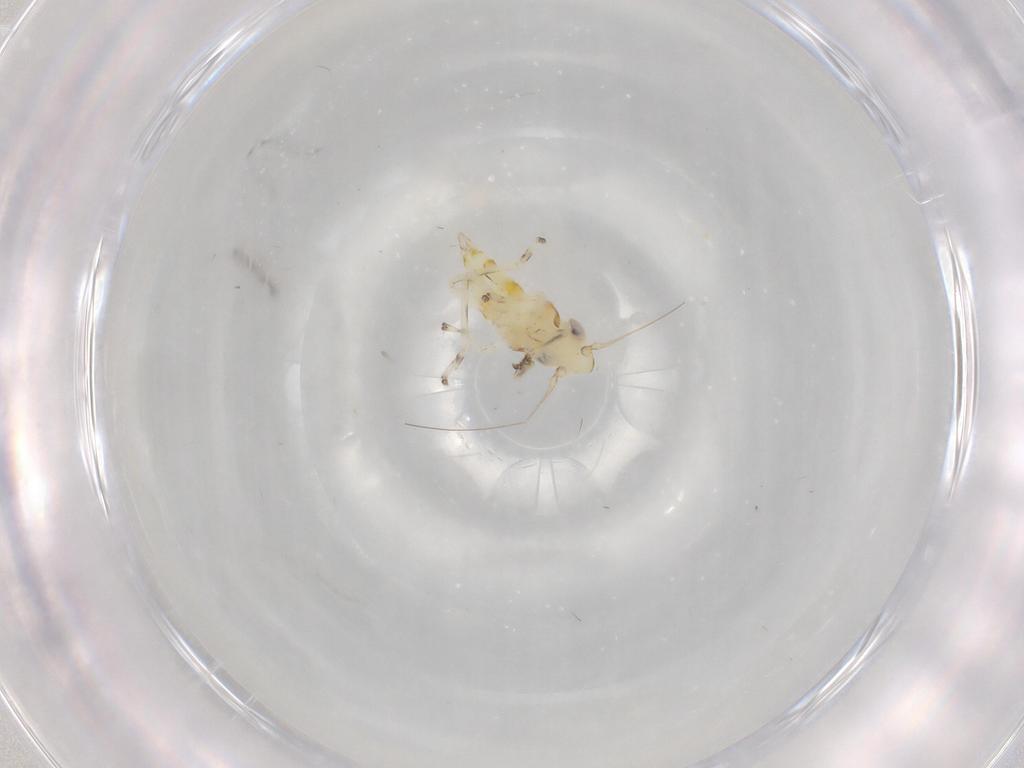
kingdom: Animalia
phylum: Arthropoda
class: Insecta
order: Hemiptera
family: Cicadellidae
